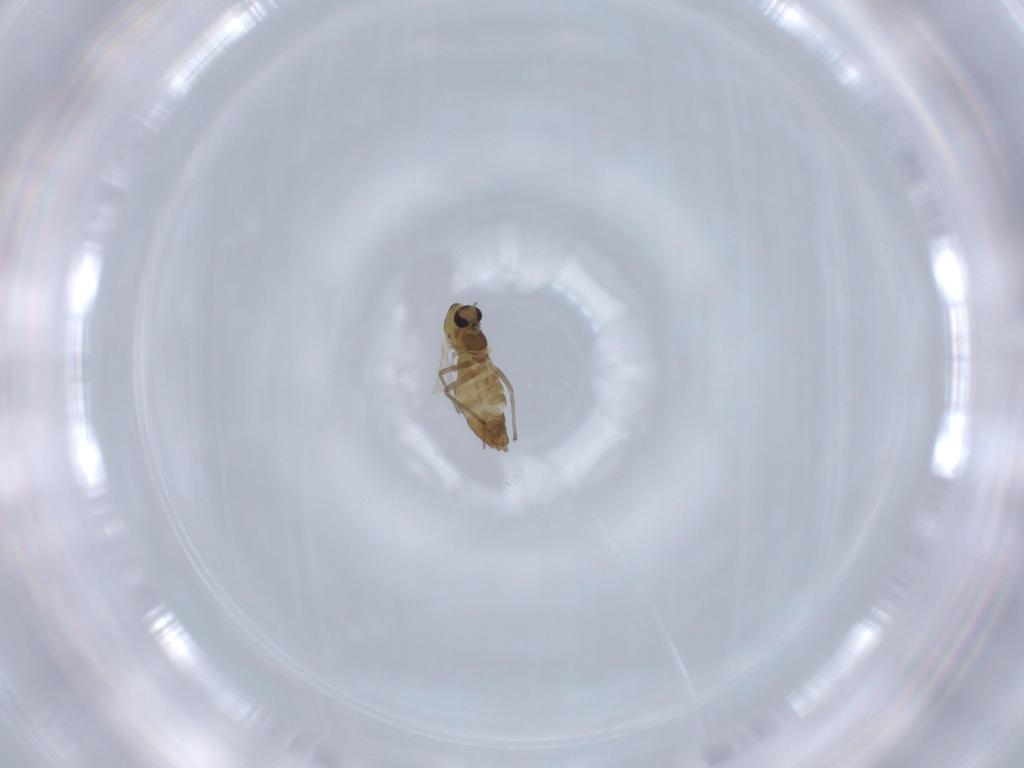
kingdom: Animalia
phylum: Arthropoda
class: Insecta
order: Diptera
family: Chironomidae
